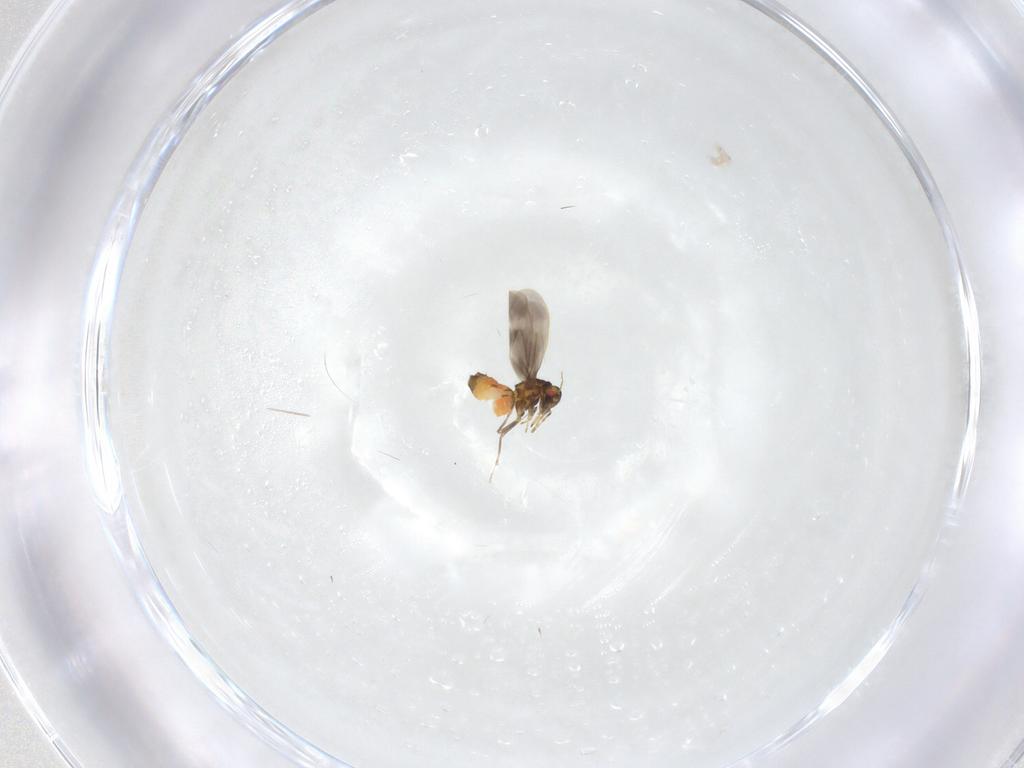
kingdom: Animalia
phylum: Arthropoda
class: Insecta
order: Hemiptera
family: Aleyrodidae
